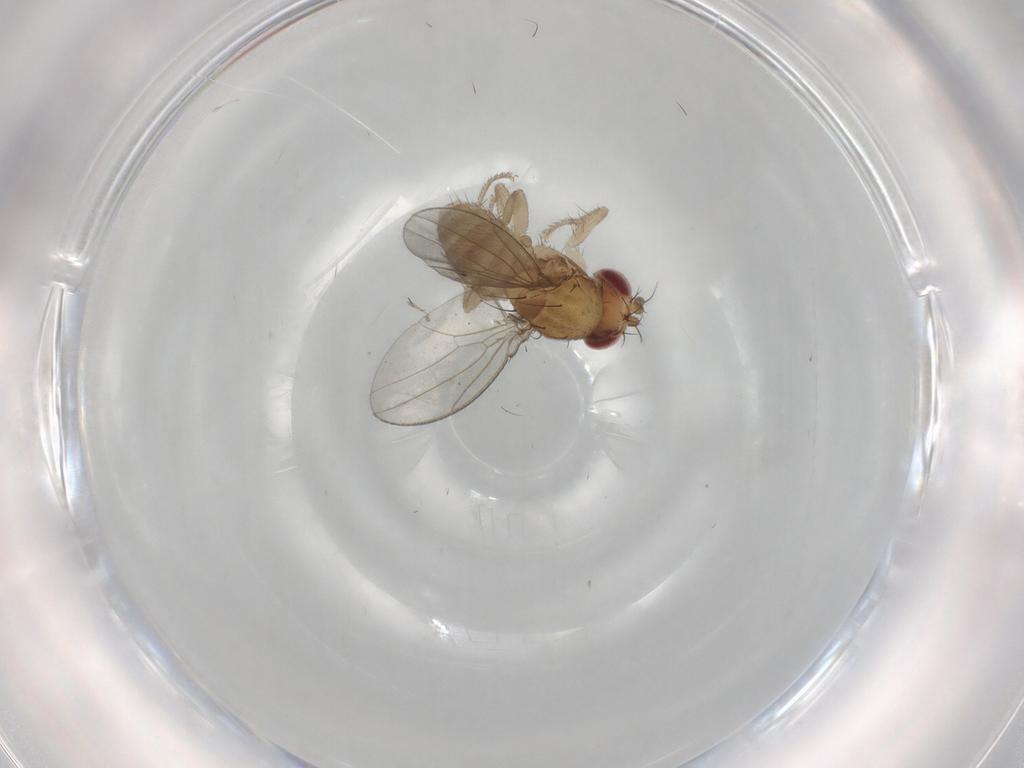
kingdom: Animalia
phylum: Arthropoda
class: Insecta
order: Diptera
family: Drosophilidae
